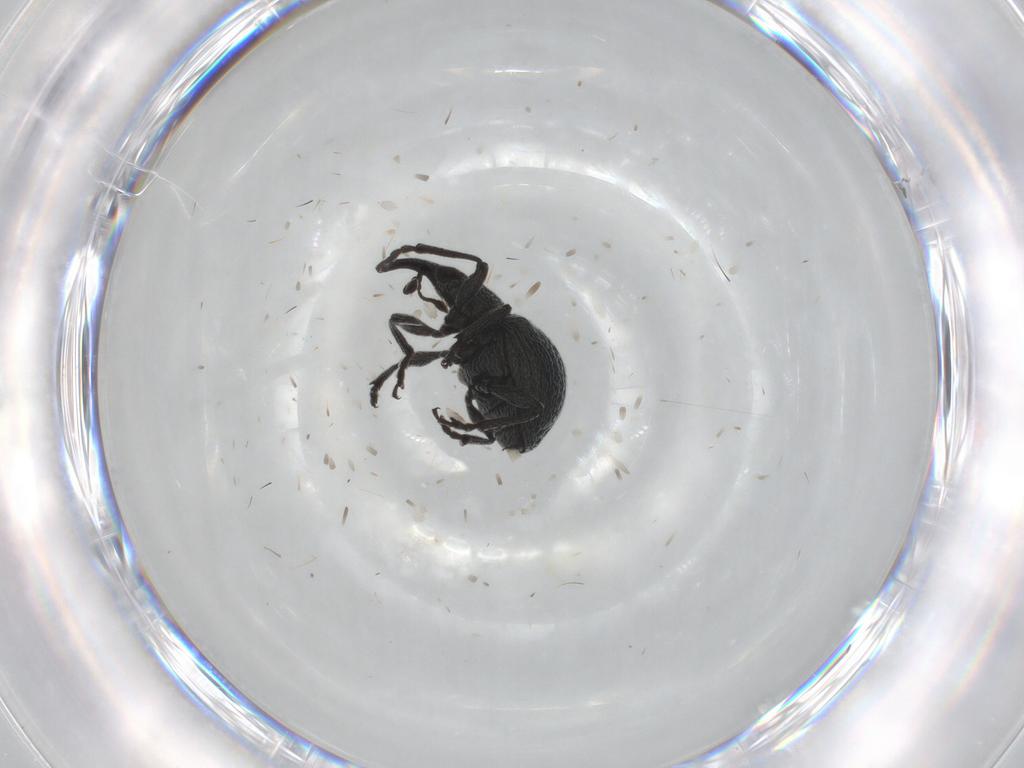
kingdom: Animalia
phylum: Arthropoda
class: Insecta
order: Coleoptera
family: Brentidae
